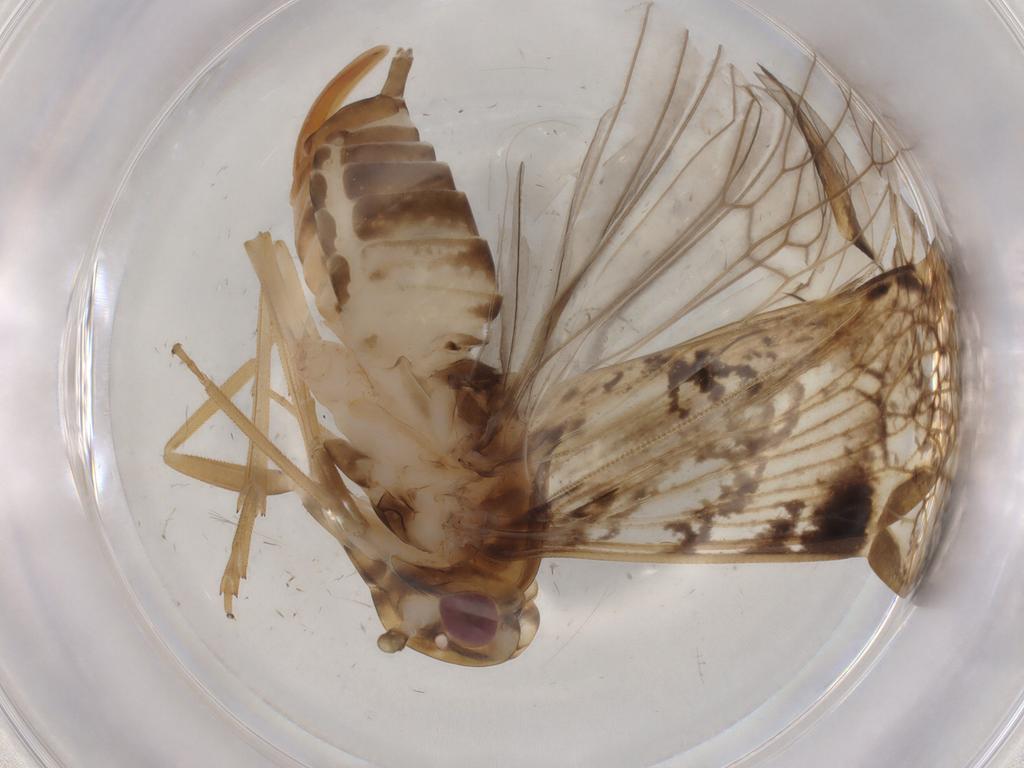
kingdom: Animalia
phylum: Arthropoda
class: Insecta
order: Hemiptera
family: Cixiidae
